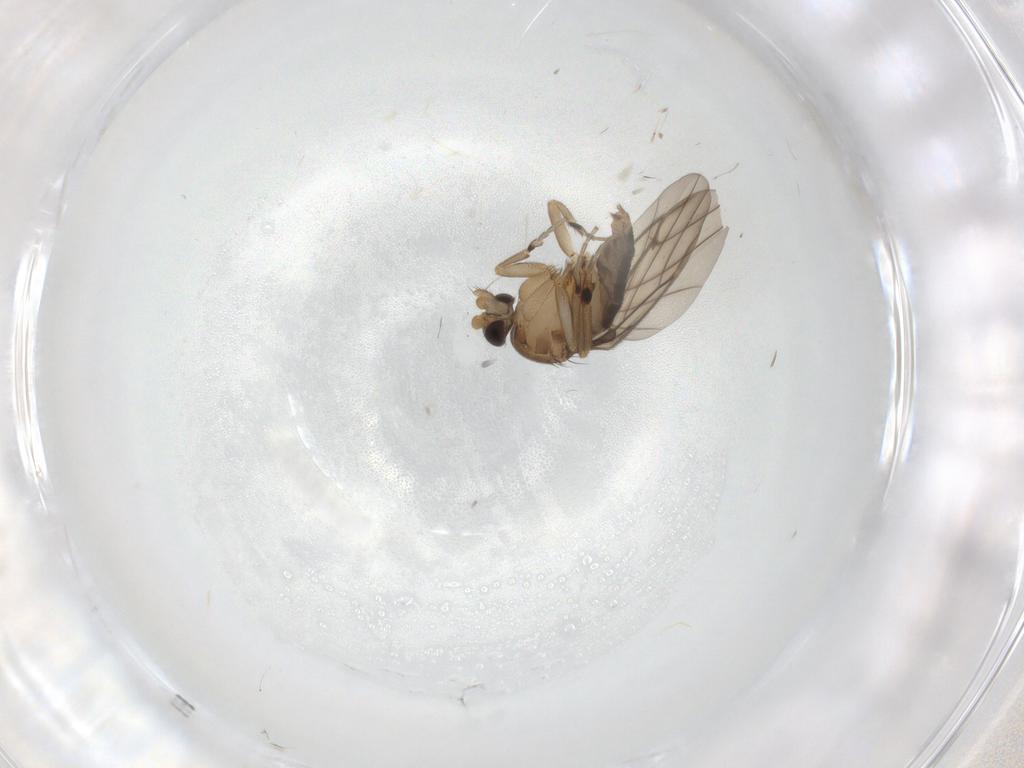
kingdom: Animalia
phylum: Arthropoda
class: Insecta
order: Diptera
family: Phoridae
